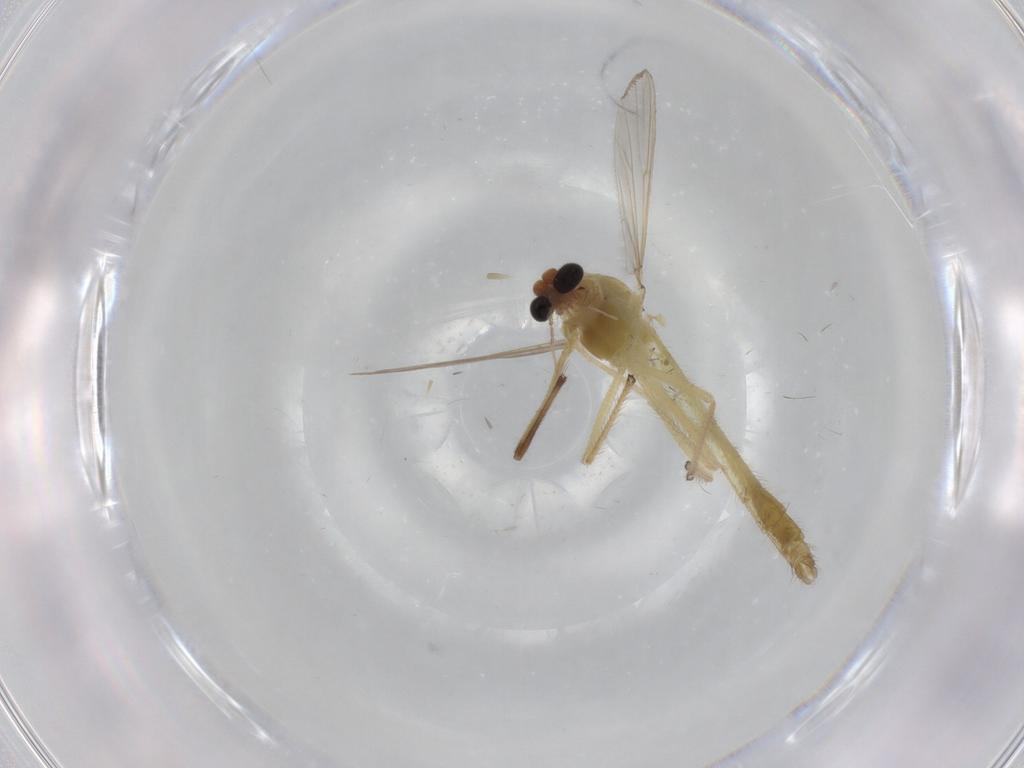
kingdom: Animalia
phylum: Arthropoda
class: Insecta
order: Diptera
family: Chironomidae
